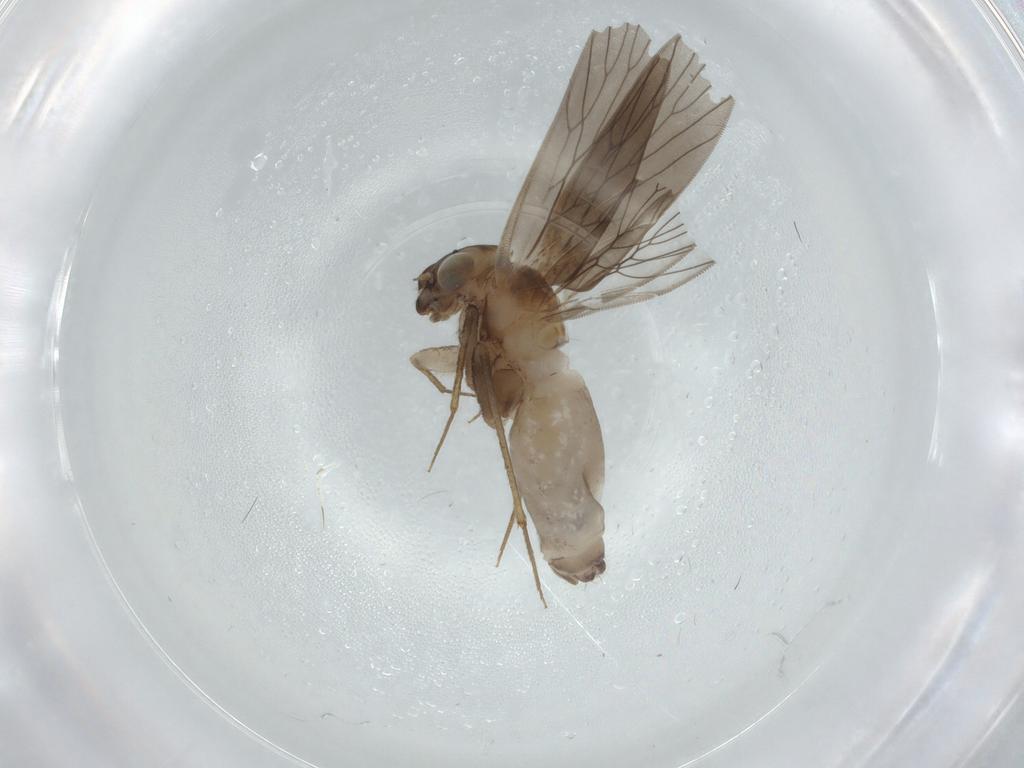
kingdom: Animalia
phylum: Arthropoda
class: Insecta
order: Psocodea
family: Lepidopsocidae
